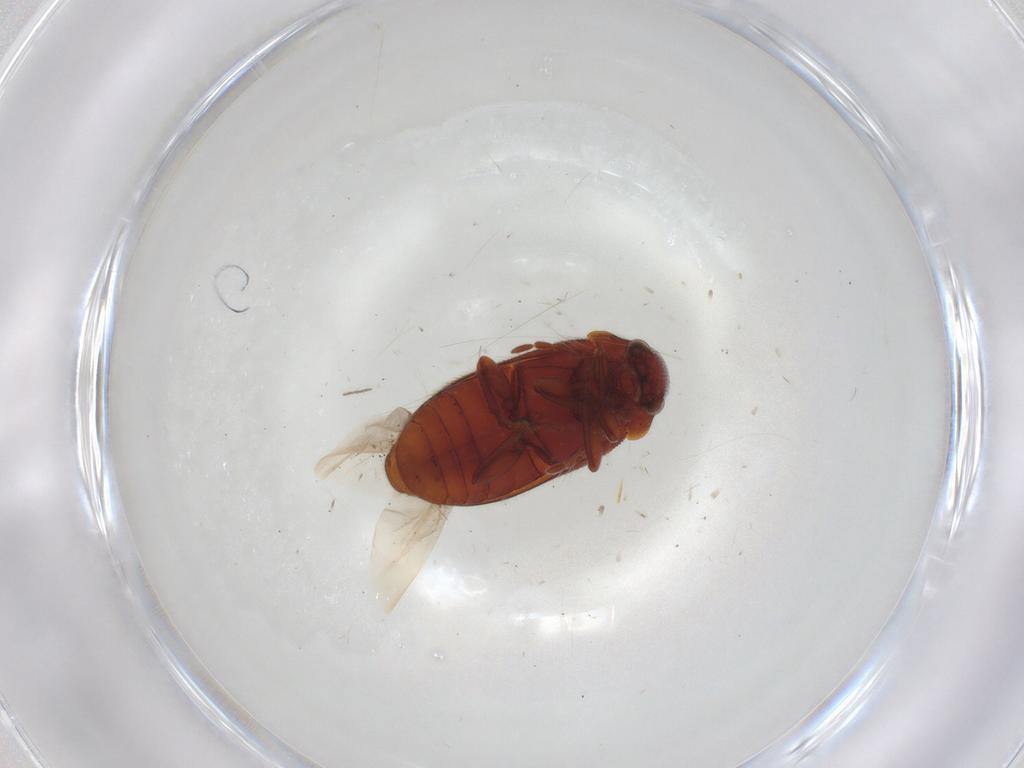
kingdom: Animalia
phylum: Arthropoda
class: Insecta
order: Coleoptera
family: Ptinidae
